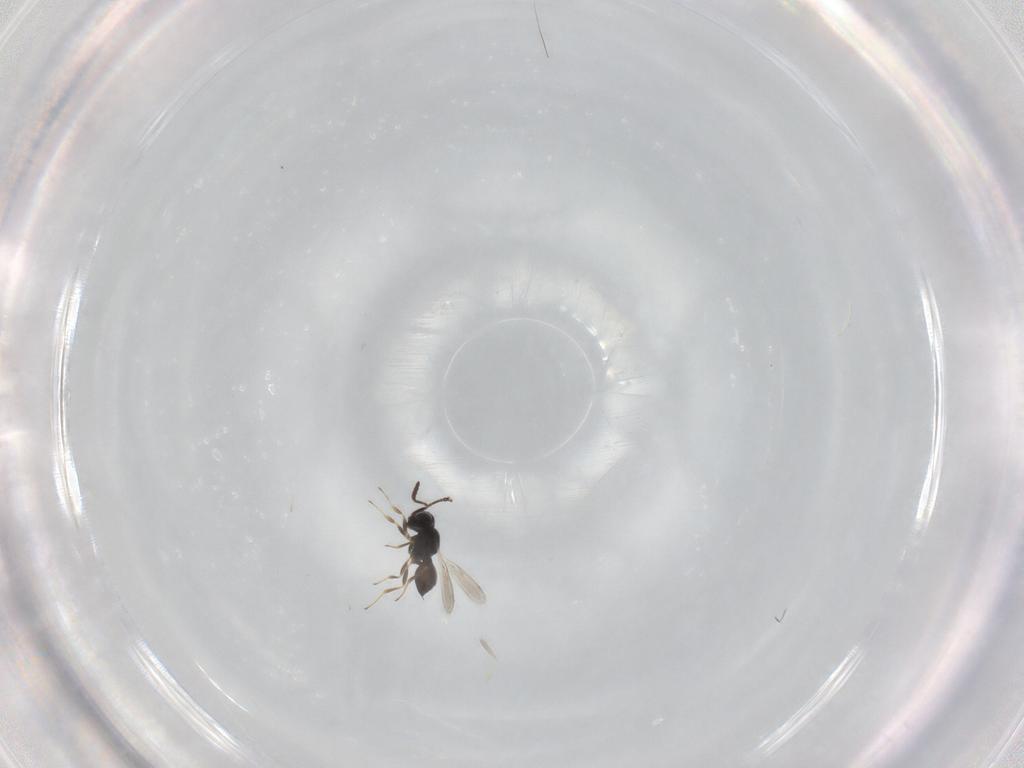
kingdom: Animalia
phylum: Arthropoda
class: Insecta
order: Hymenoptera
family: Scelionidae
